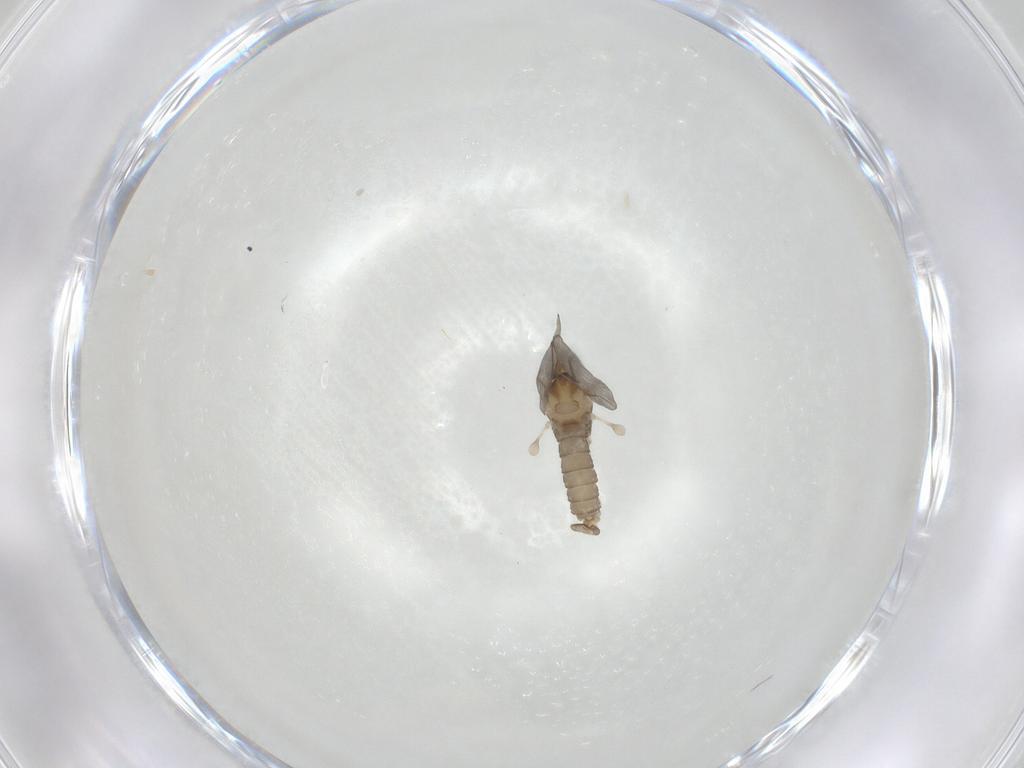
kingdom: Animalia
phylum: Arthropoda
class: Insecta
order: Diptera
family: Cecidomyiidae
